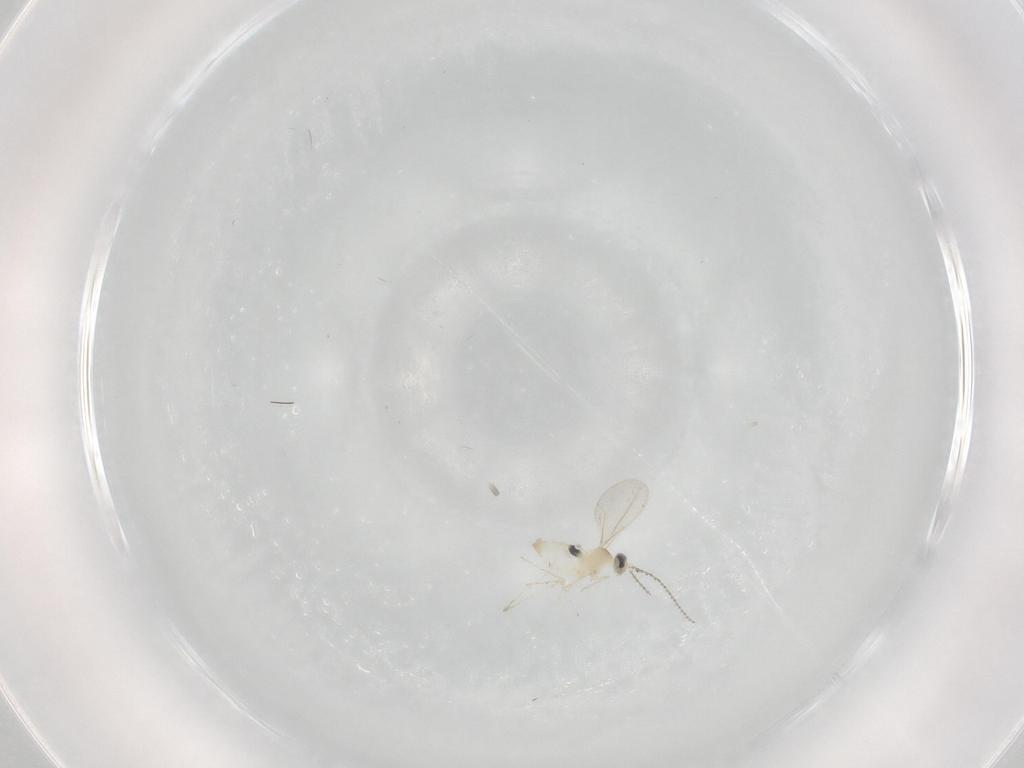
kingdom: Animalia
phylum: Arthropoda
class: Insecta
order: Diptera
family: Cecidomyiidae
